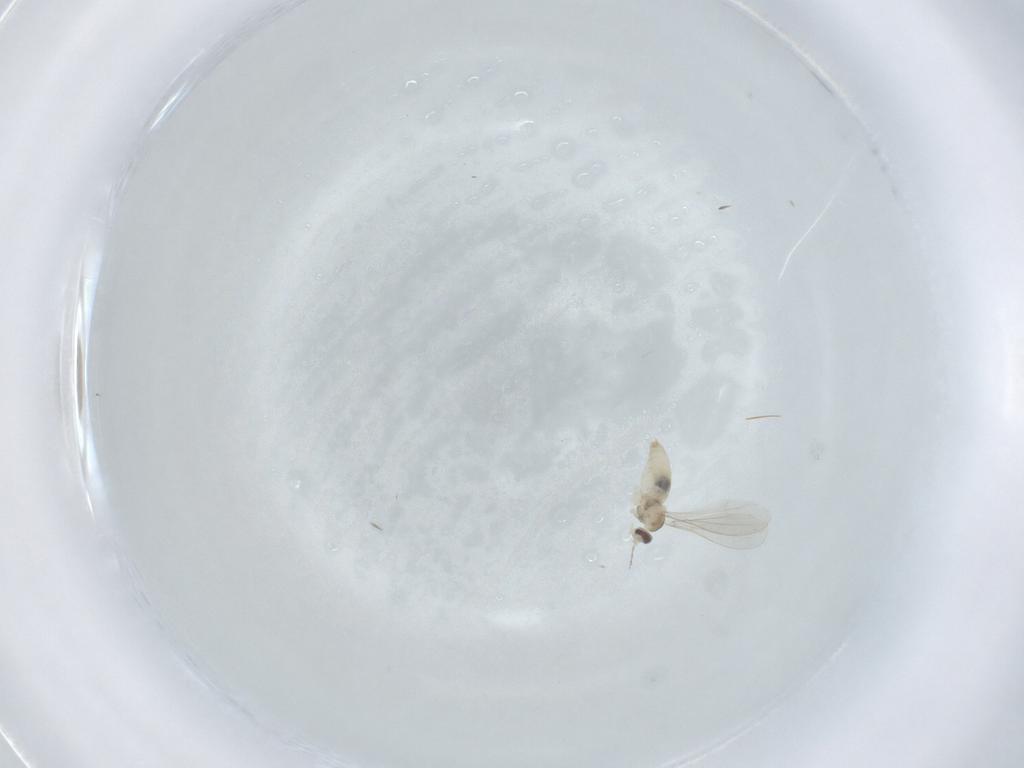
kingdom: Animalia
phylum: Arthropoda
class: Insecta
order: Diptera
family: Cecidomyiidae
